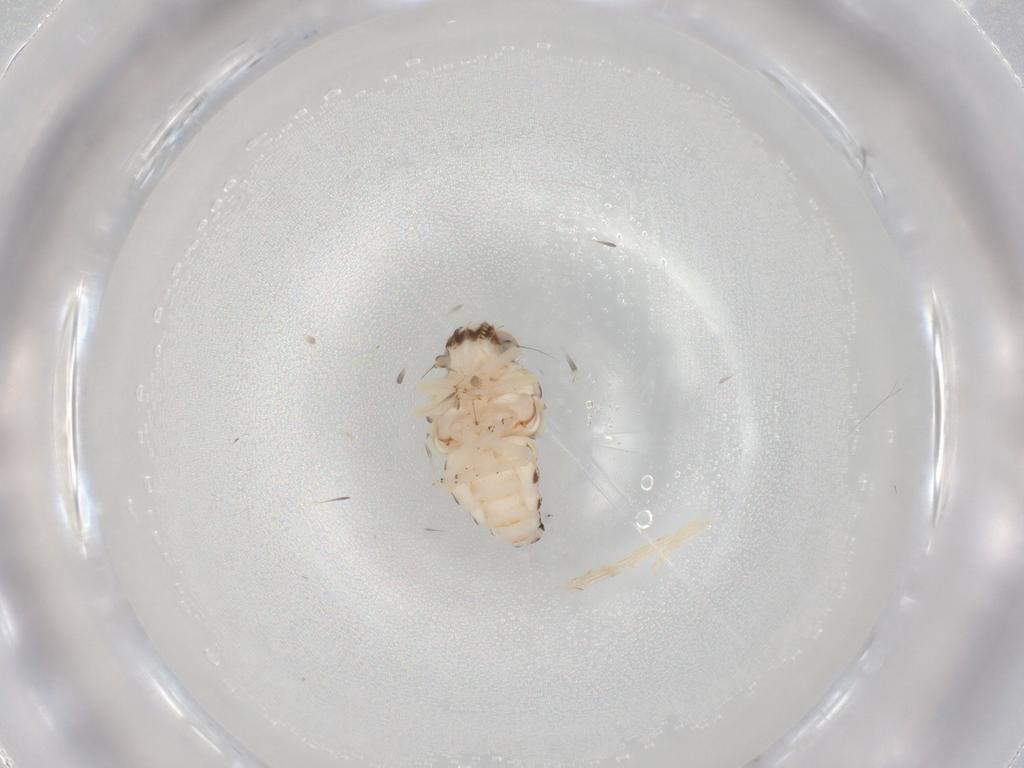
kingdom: Animalia
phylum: Arthropoda
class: Insecta
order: Hemiptera
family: Nogodinidae
